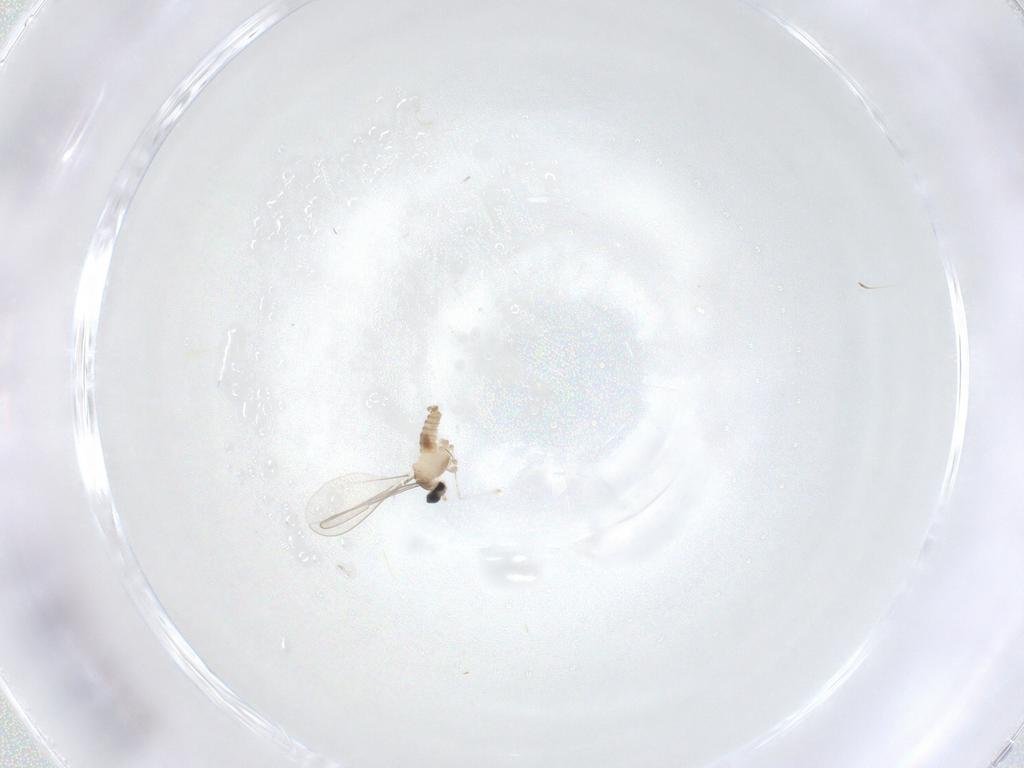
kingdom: Animalia
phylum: Arthropoda
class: Insecta
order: Diptera
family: Cecidomyiidae
